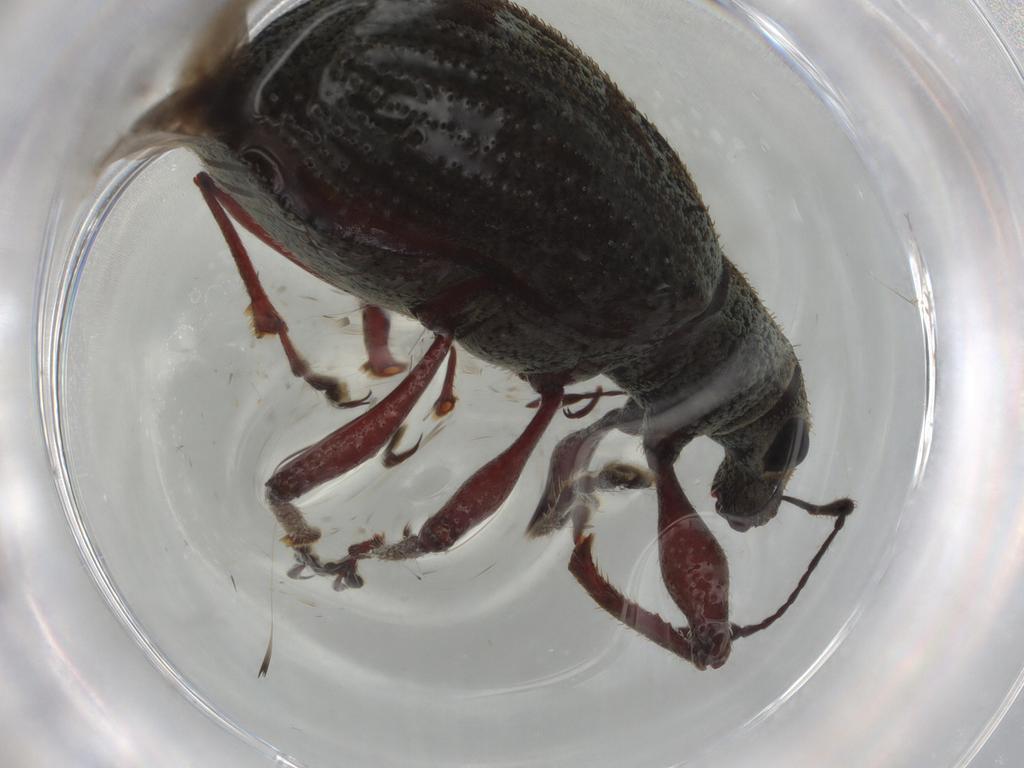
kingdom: Animalia
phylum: Arthropoda
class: Insecta
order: Coleoptera
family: Curculionidae
